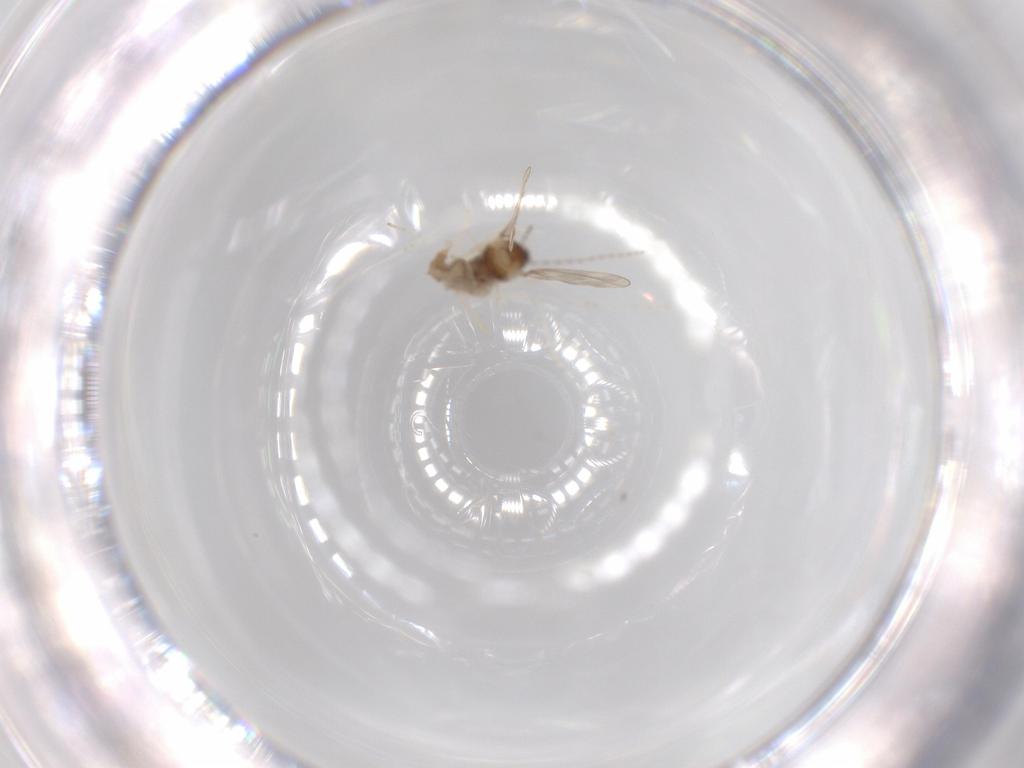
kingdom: Animalia
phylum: Arthropoda
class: Insecta
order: Diptera
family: Cecidomyiidae
